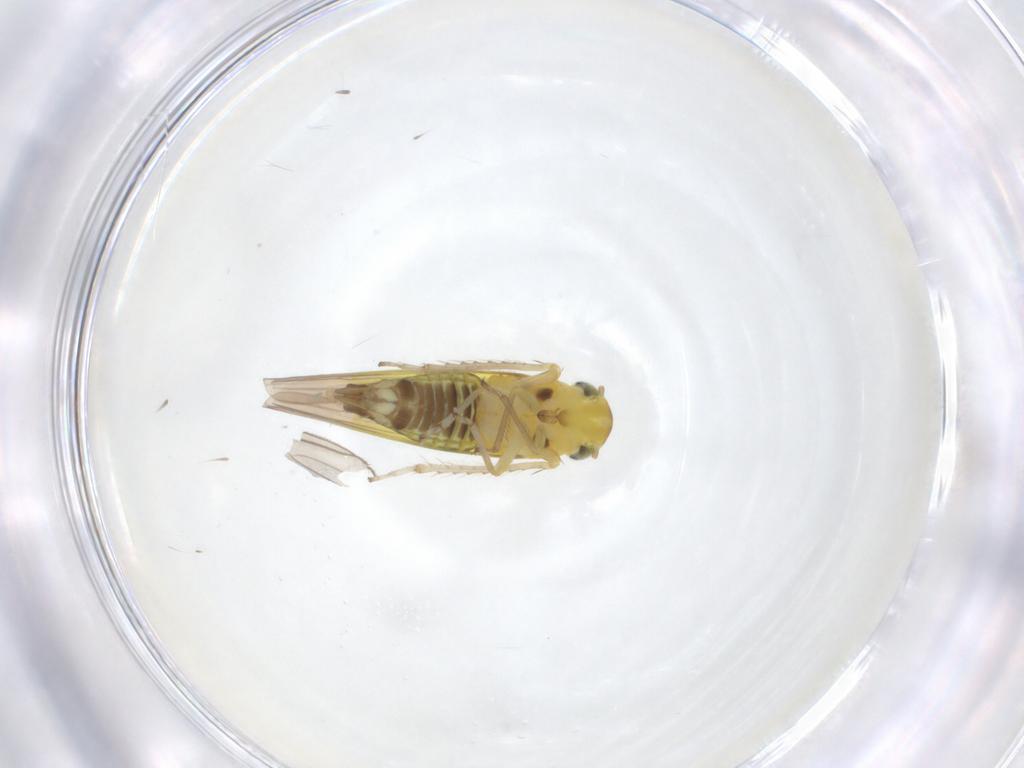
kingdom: Animalia
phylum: Arthropoda
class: Insecta
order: Hemiptera
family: Cicadellidae
